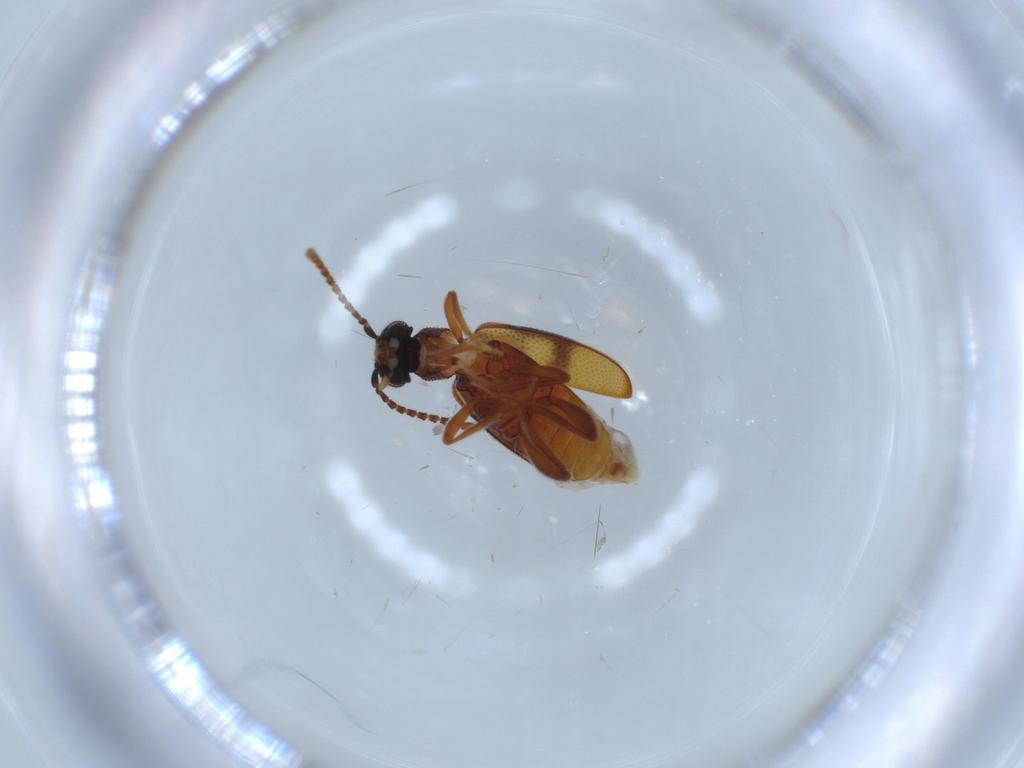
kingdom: Animalia
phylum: Arthropoda
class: Insecta
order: Coleoptera
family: Aderidae
